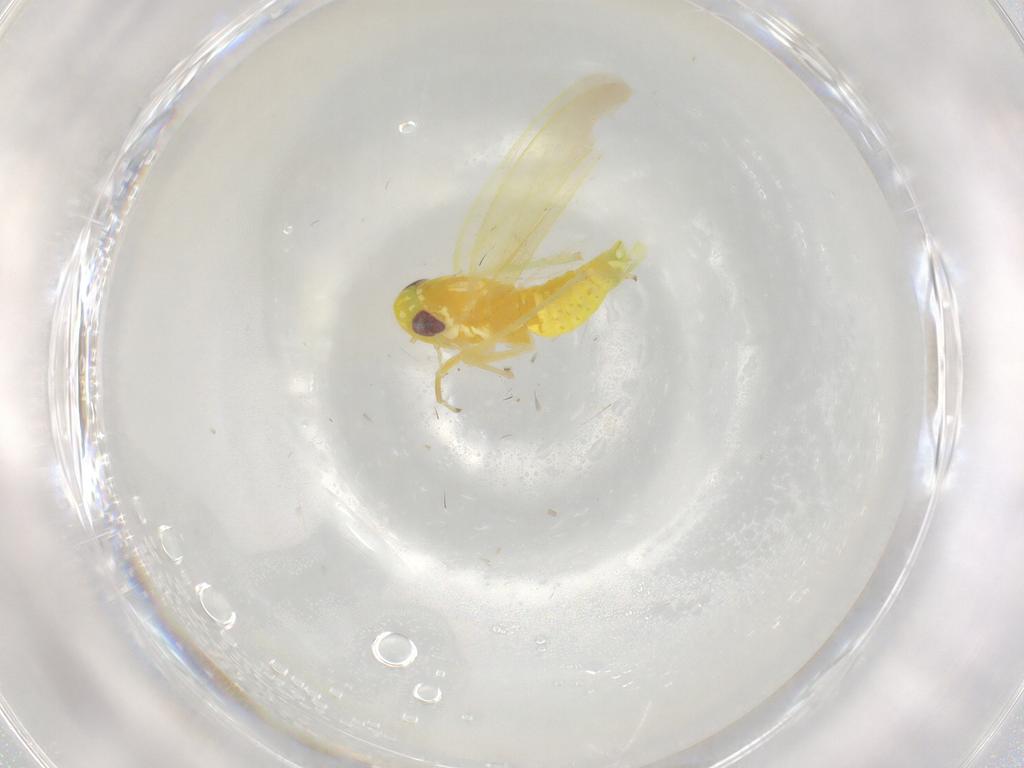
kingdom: Animalia
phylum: Arthropoda
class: Insecta
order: Hemiptera
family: Cicadellidae
